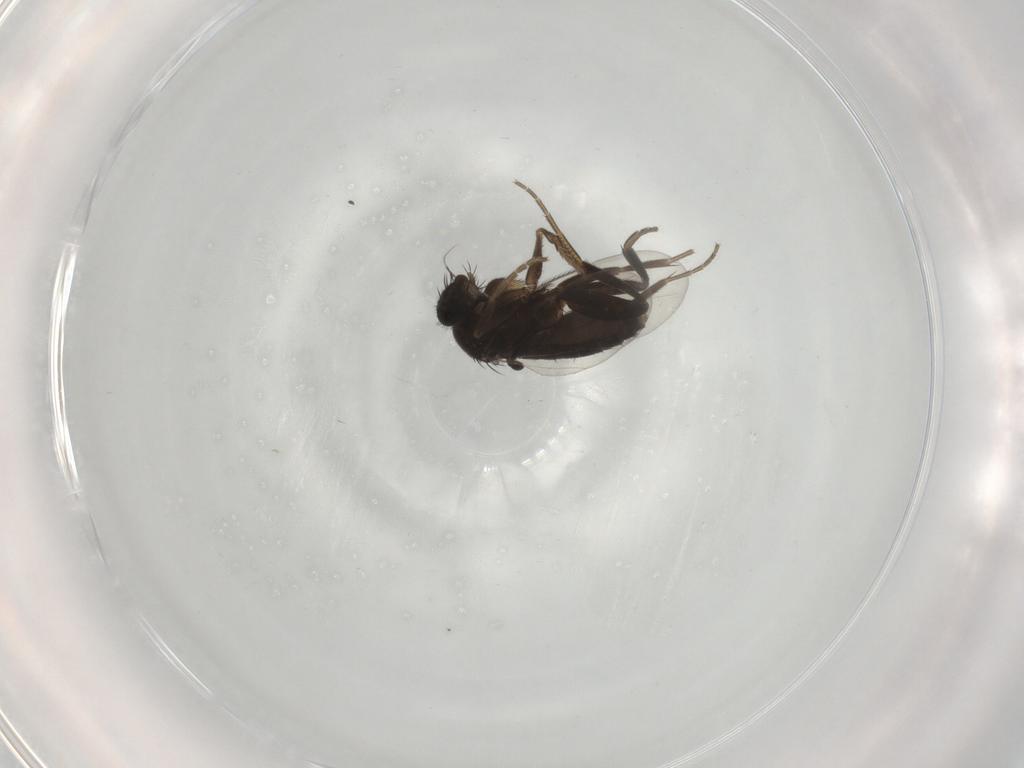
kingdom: Animalia
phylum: Arthropoda
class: Insecta
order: Diptera
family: Phoridae
